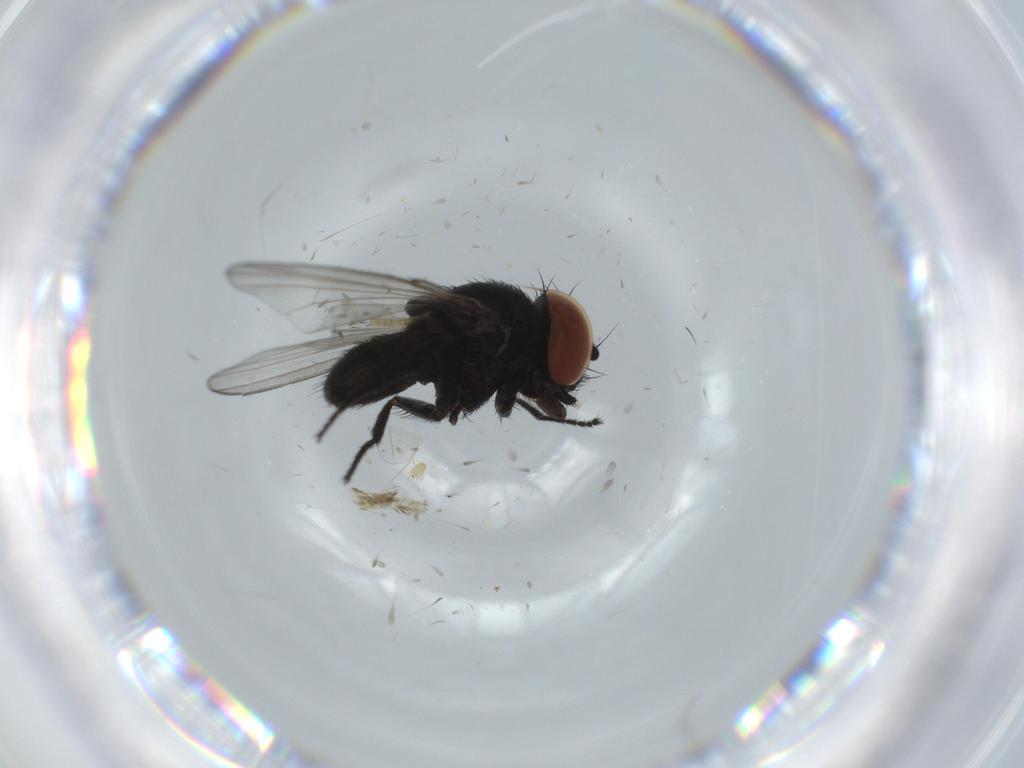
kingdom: Animalia
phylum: Arthropoda
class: Insecta
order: Diptera
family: Milichiidae
